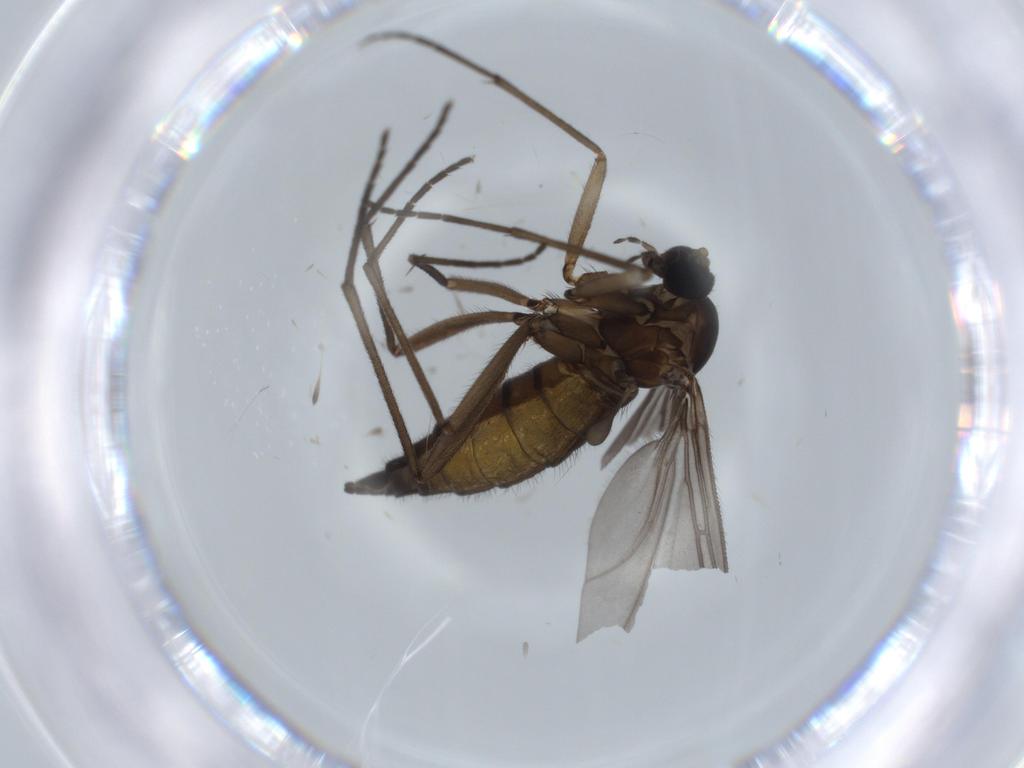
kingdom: Animalia
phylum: Arthropoda
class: Insecta
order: Diptera
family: Sciaridae
